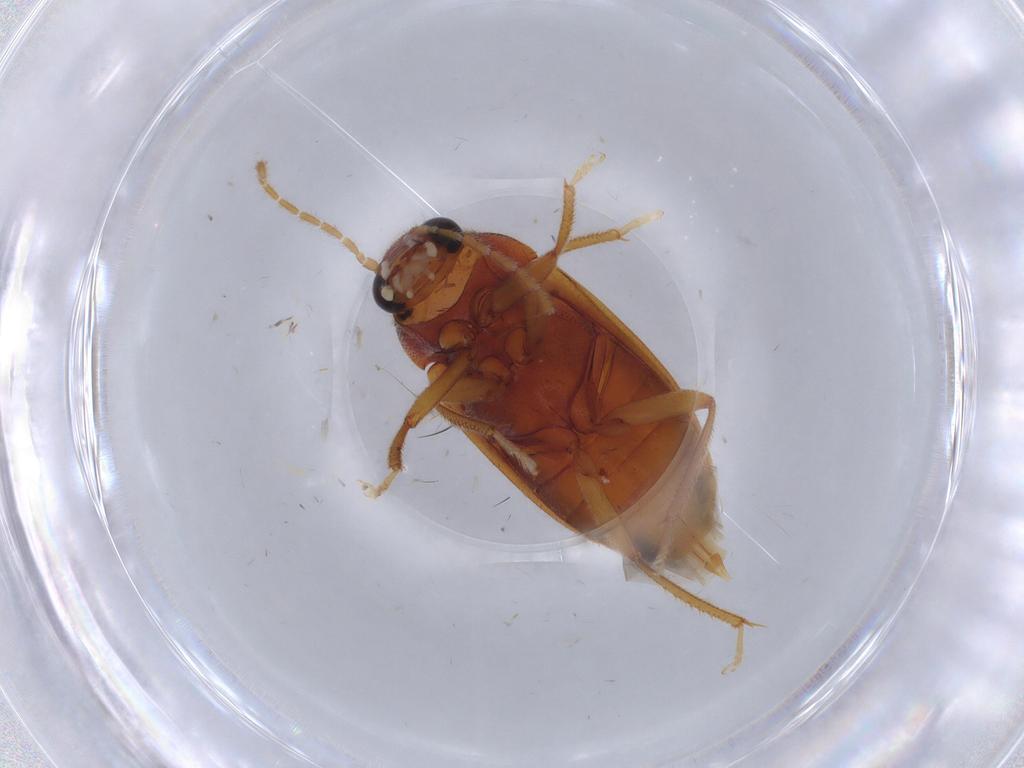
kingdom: Animalia
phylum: Arthropoda
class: Insecta
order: Coleoptera
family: Ptilodactylidae
